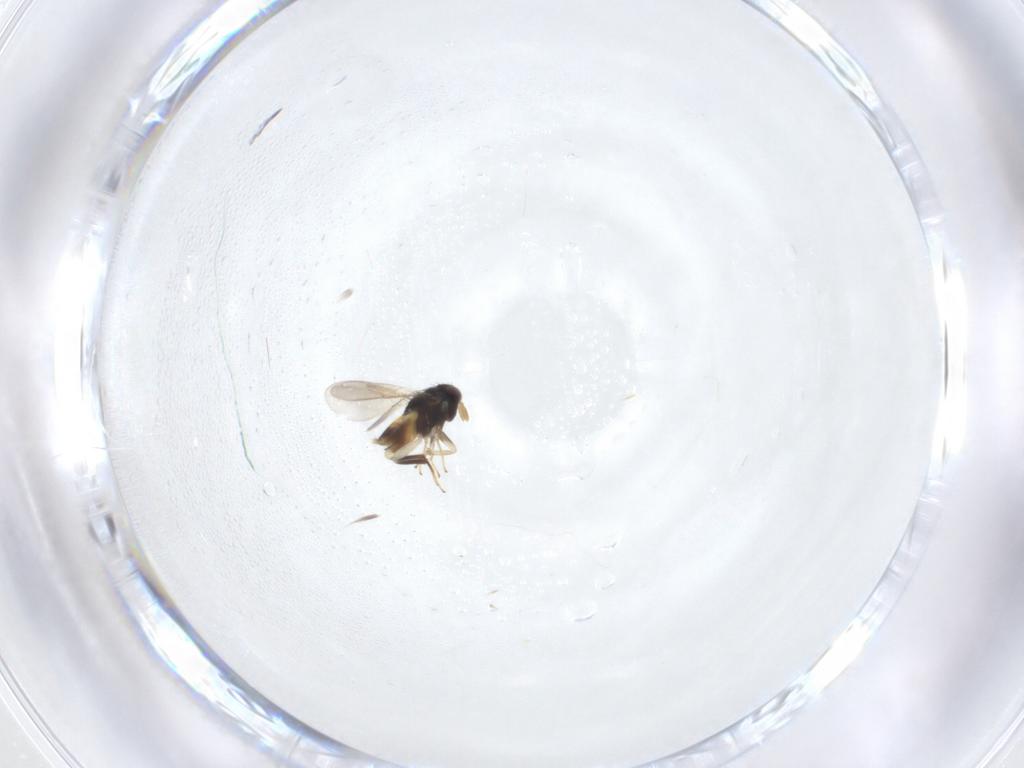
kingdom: Animalia
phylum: Arthropoda
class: Insecta
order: Hymenoptera
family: Aphelinidae
